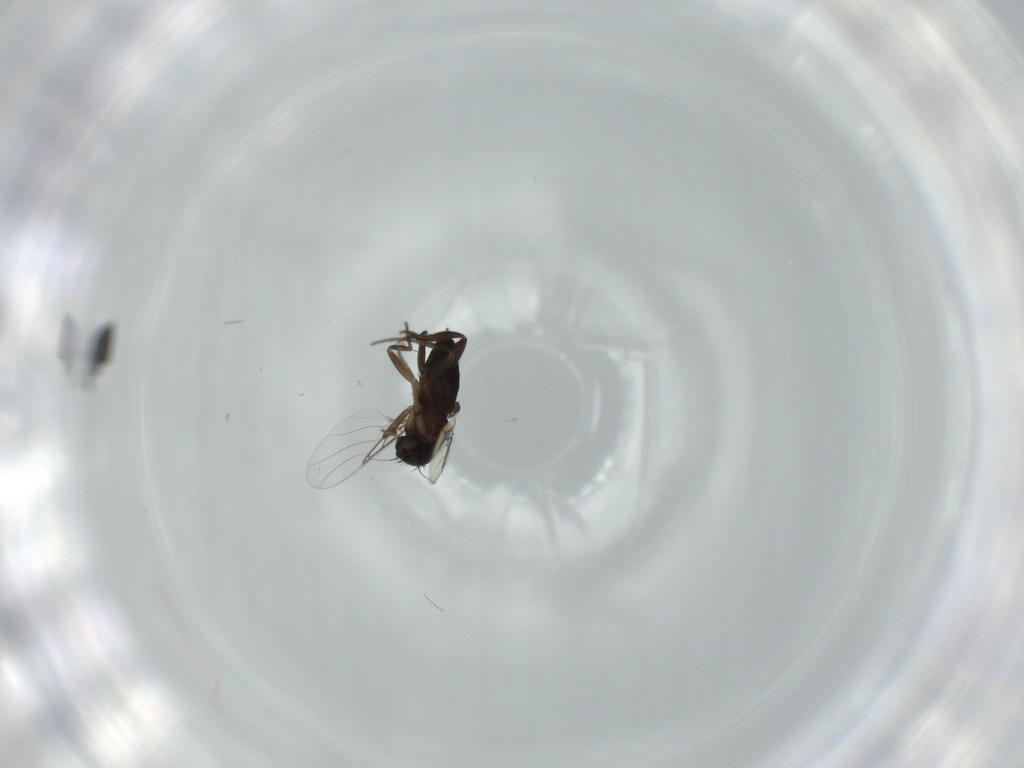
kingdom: Animalia
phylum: Arthropoda
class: Insecta
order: Diptera
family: Phoridae
